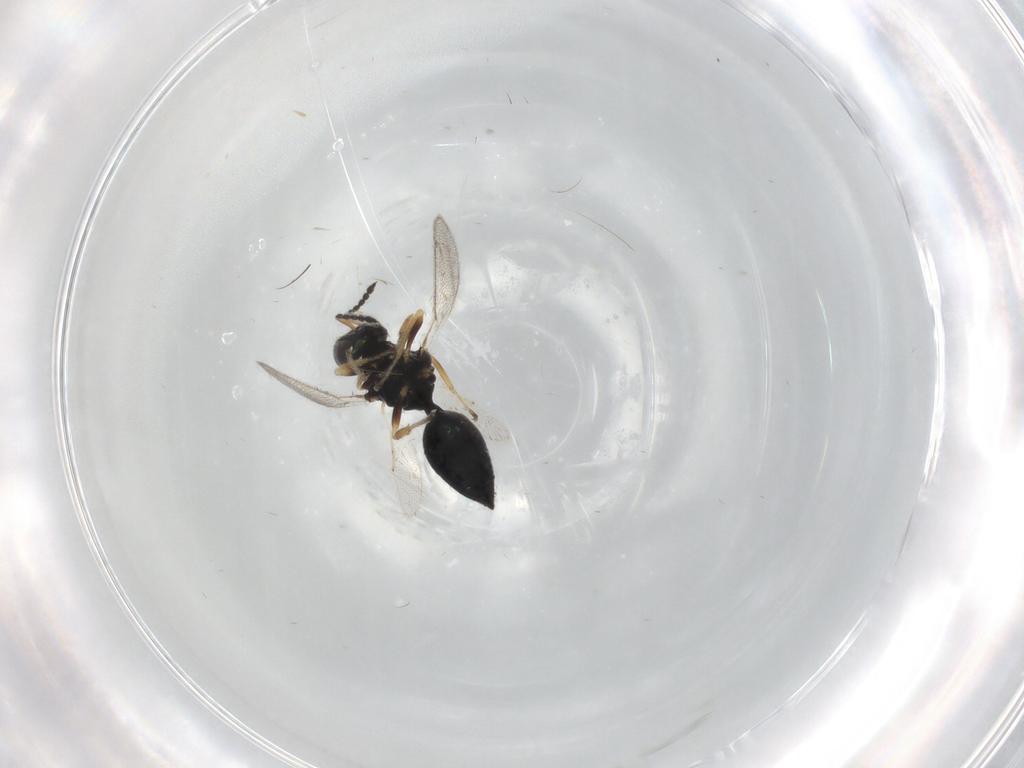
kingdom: Animalia
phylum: Arthropoda
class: Insecta
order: Hymenoptera
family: Eulophidae
